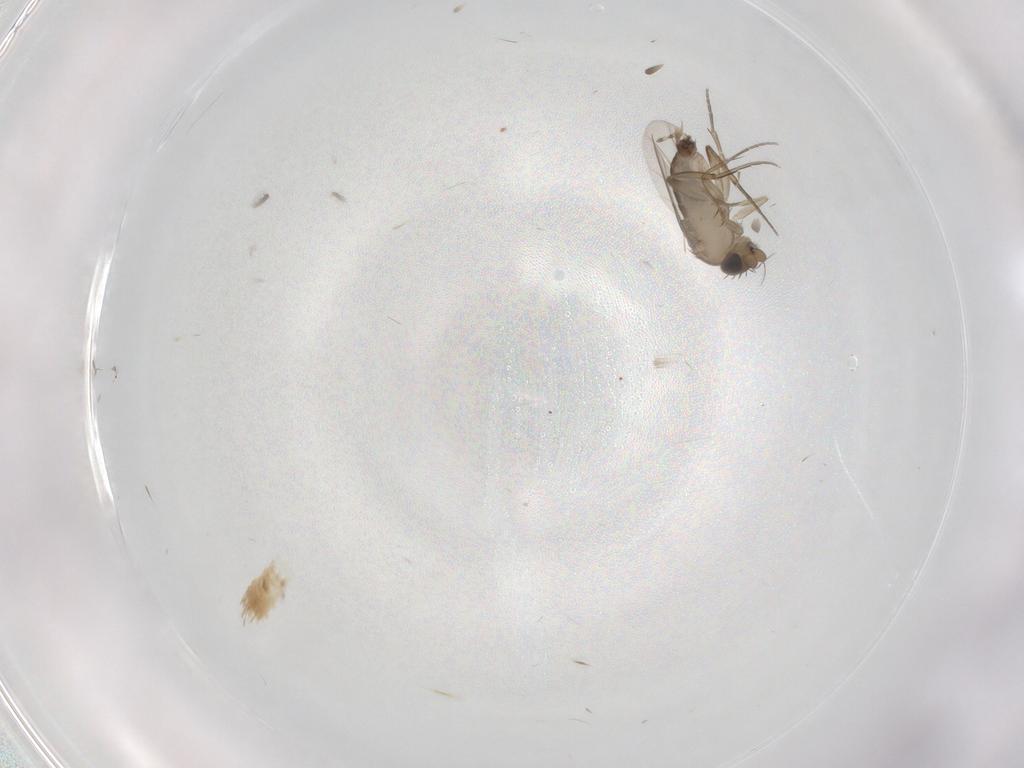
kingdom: Animalia
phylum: Arthropoda
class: Insecta
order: Diptera
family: Phoridae
